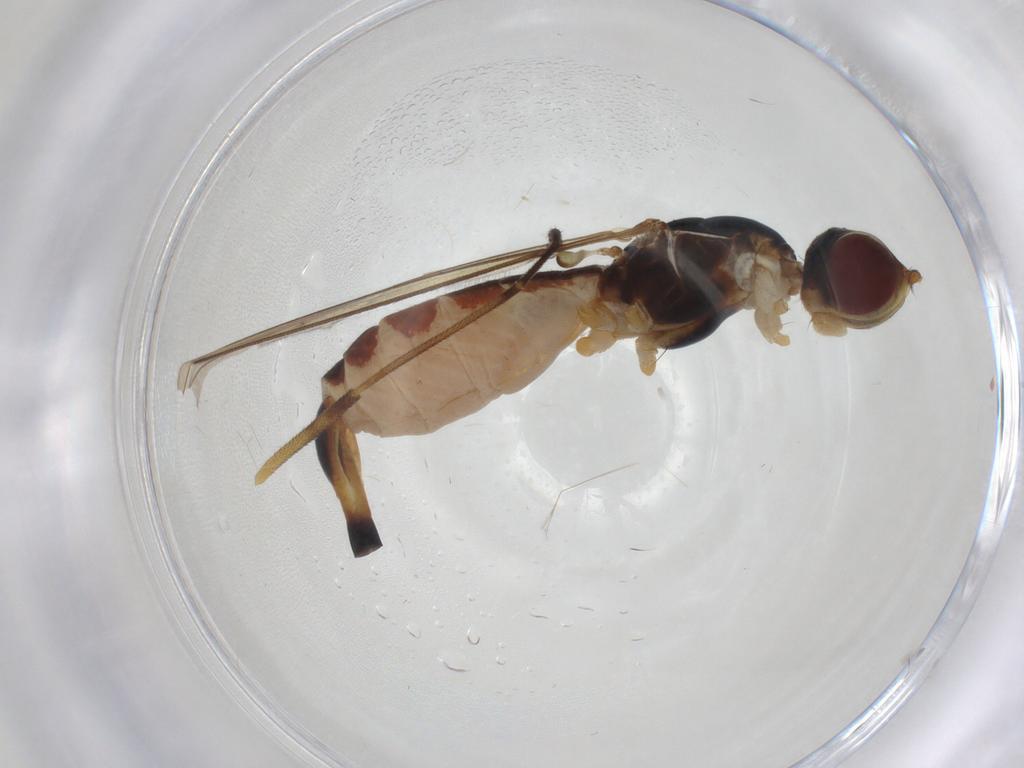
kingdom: Animalia
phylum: Arthropoda
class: Insecta
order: Diptera
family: Micropezidae
